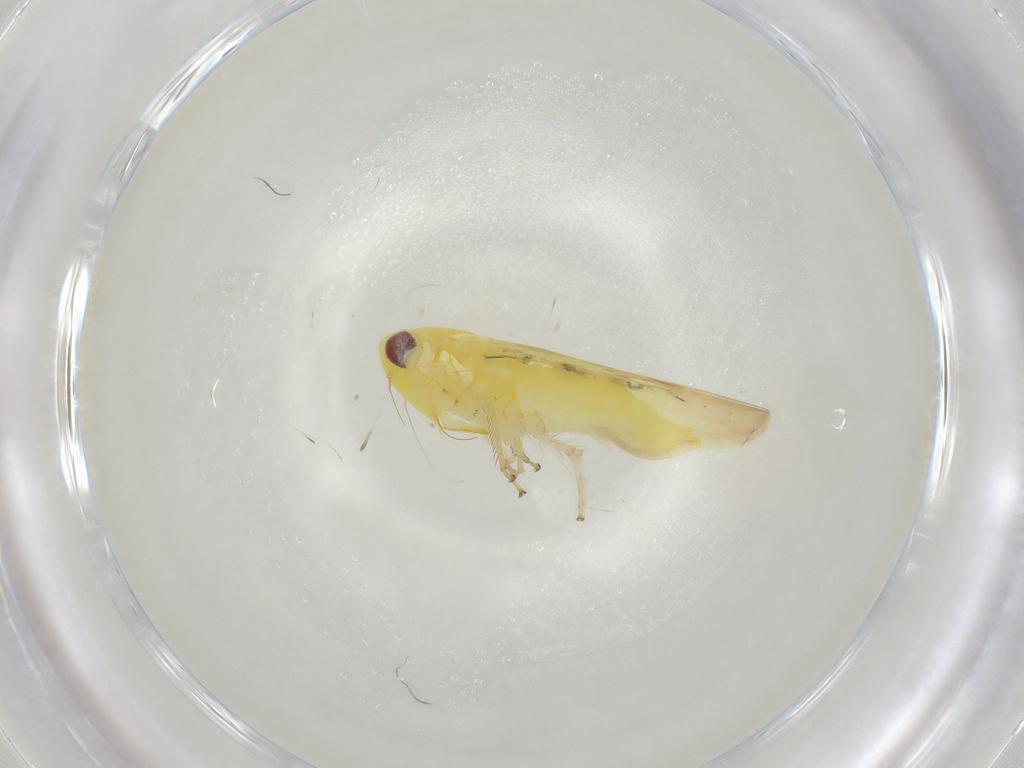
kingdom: Animalia
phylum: Arthropoda
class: Insecta
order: Hemiptera
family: Cicadellidae
